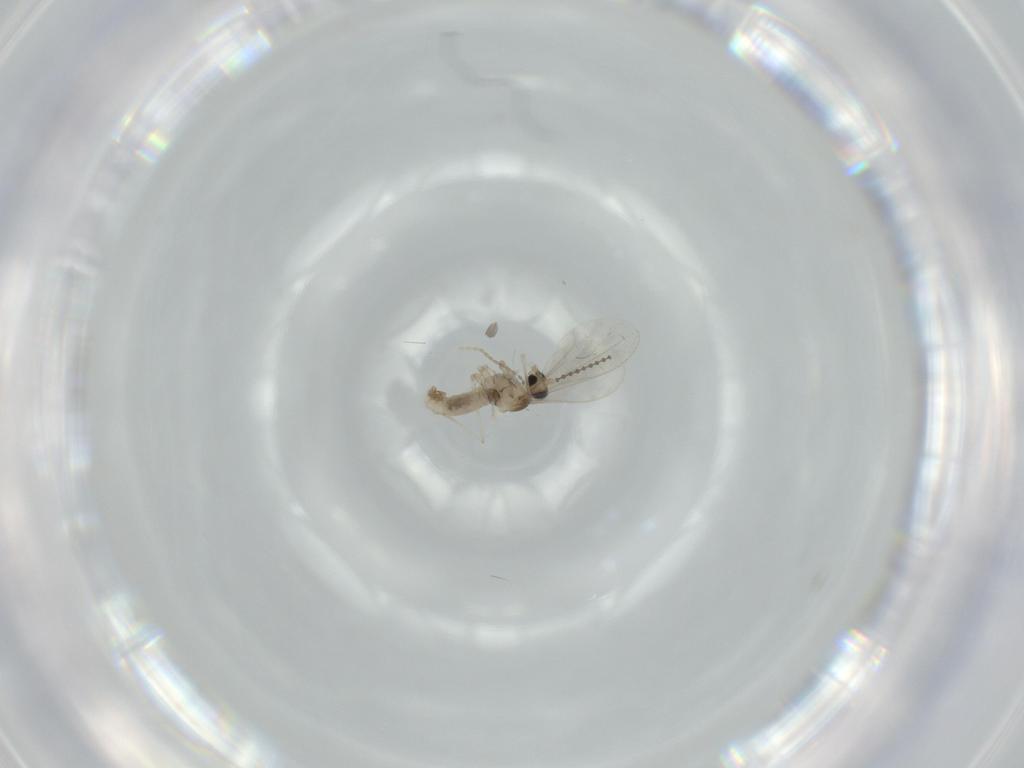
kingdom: Animalia
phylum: Arthropoda
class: Insecta
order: Diptera
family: Cecidomyiidae
